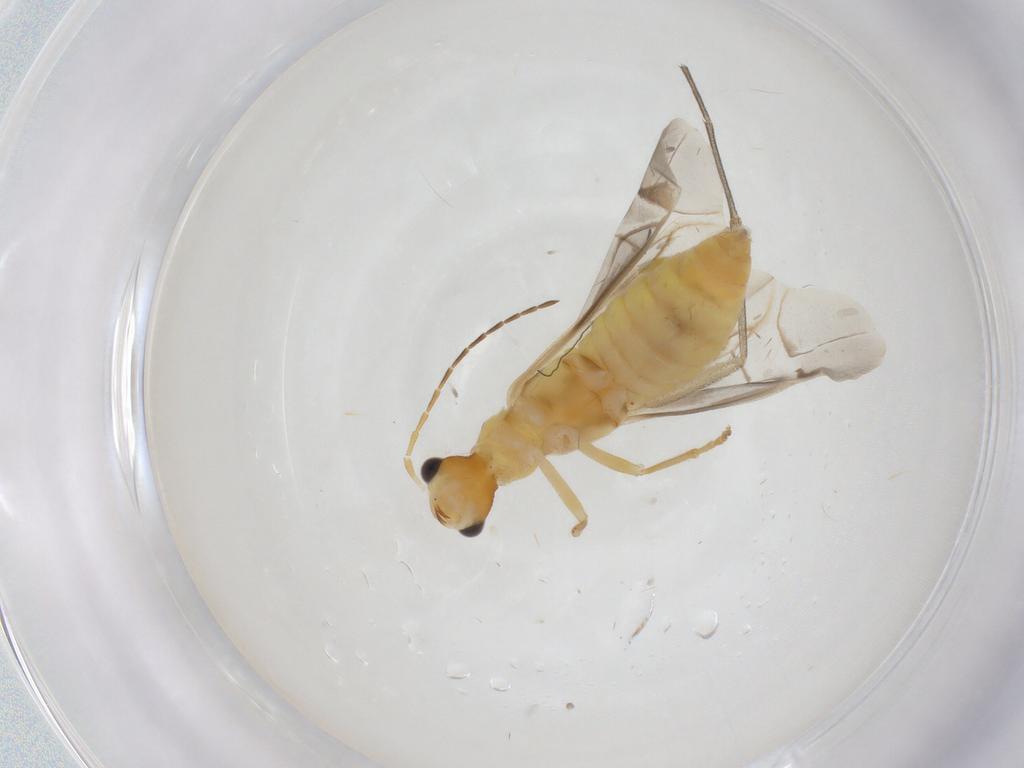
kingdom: Animalia
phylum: Arthropoda
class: Insecta
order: Coleoptera
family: Cantharidae
